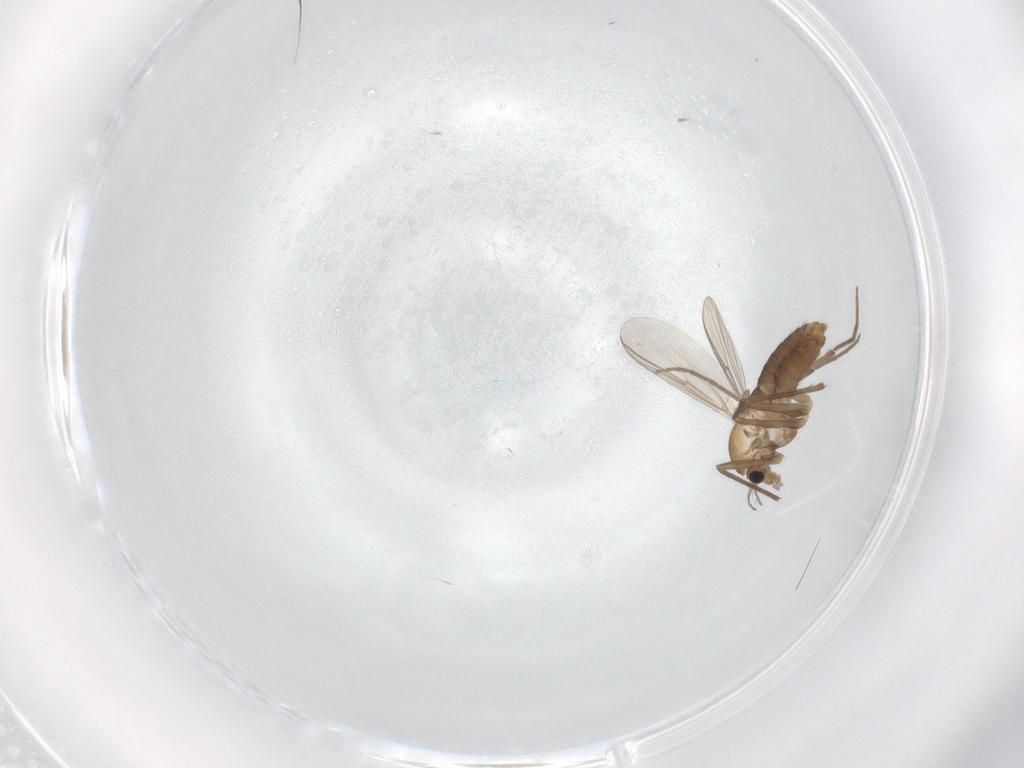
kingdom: Animalia
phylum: Arthropoda
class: Insecta
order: Diptera
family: Chironomidae
